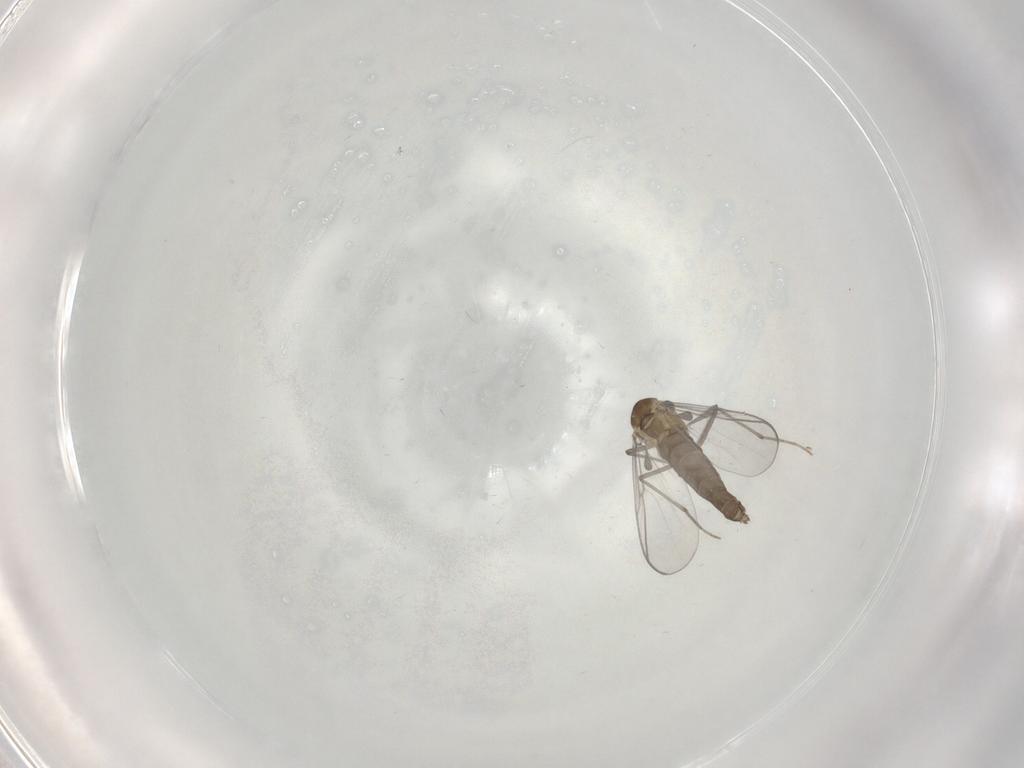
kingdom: Animalia
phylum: Arthropoda
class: Insecta
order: Diptera
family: Chironomidae
